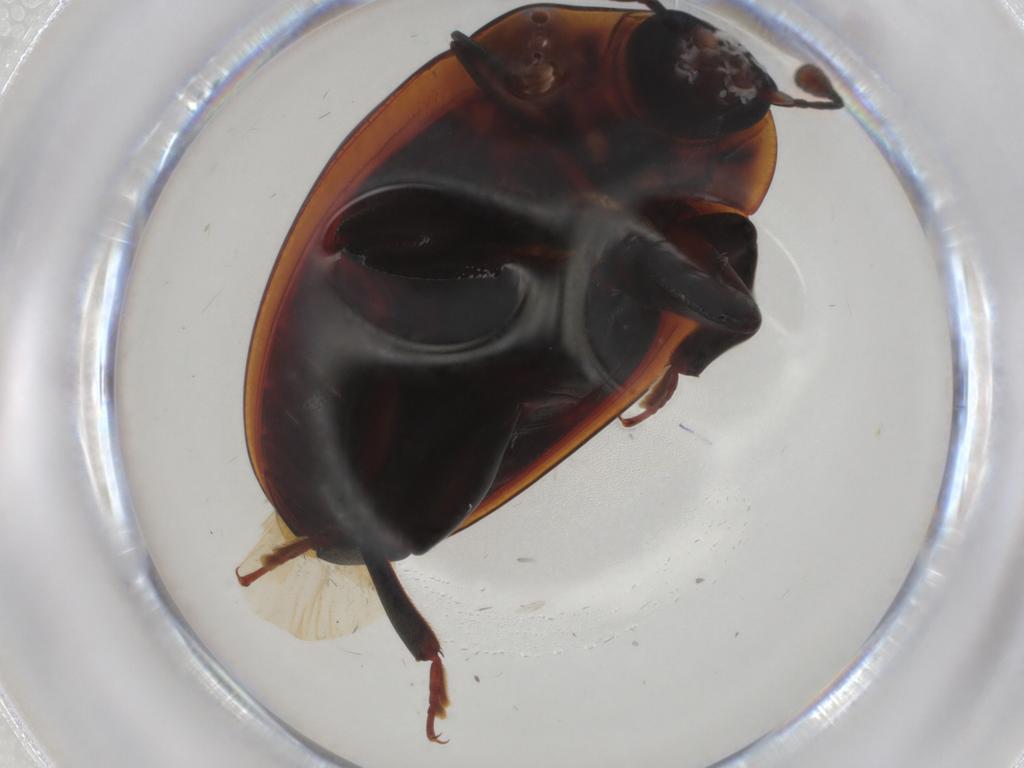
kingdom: Animalia
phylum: Arthropoda
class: Insecta
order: Coleoptera
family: Zopheridae
